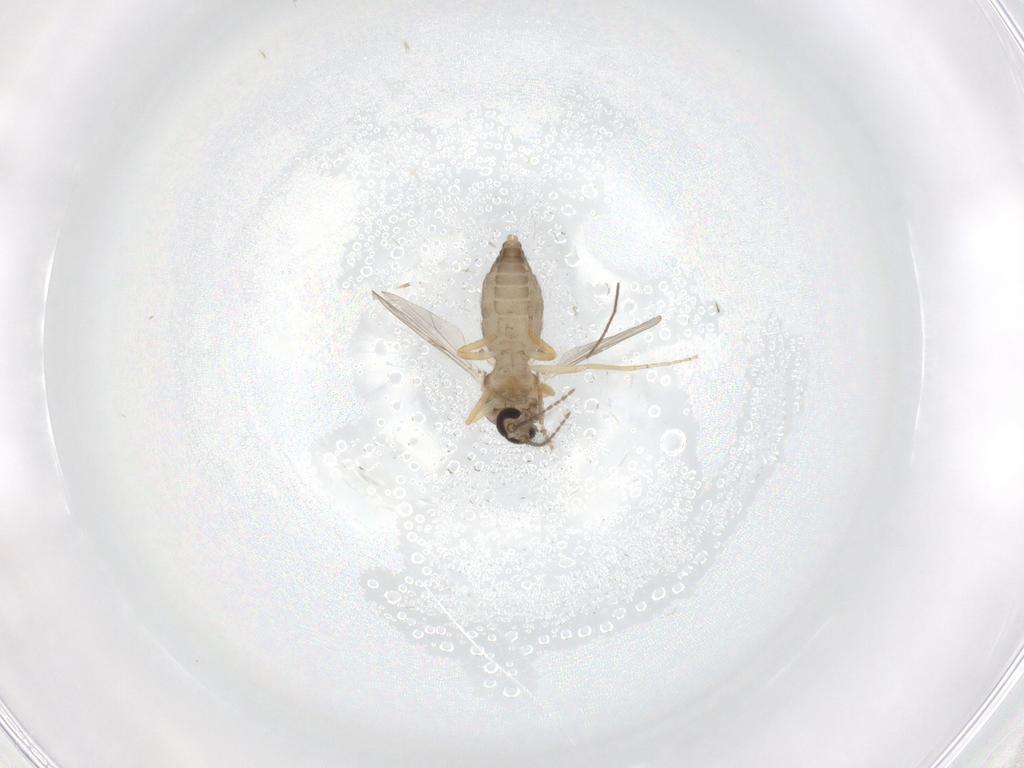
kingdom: Animalia
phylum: Arthropoda
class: Insecta
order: Diptera
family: Ceratopogonidae
